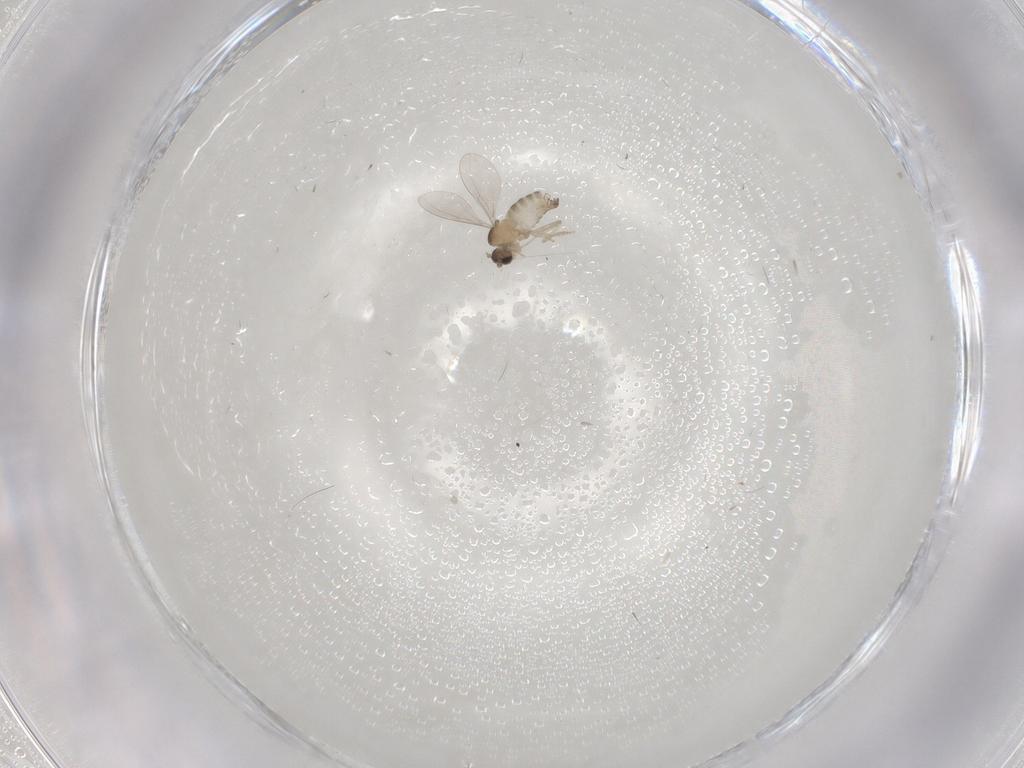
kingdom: Animalia
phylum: Arthropoda
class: Insecta
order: Diptera
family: Cecidomyiidae
